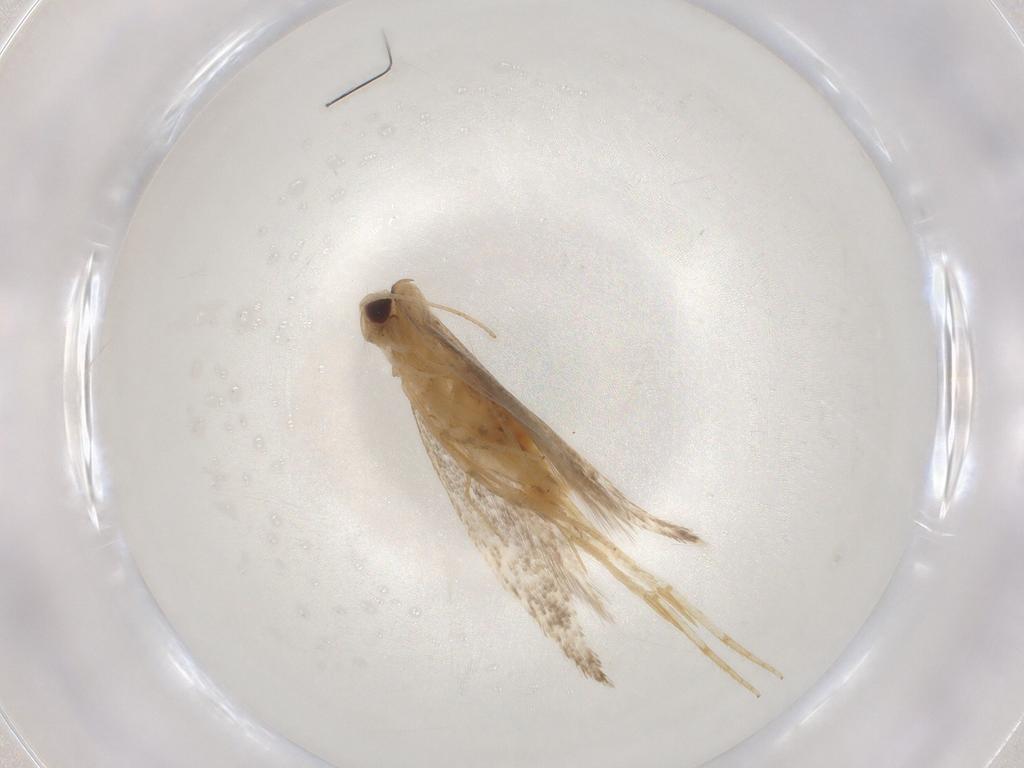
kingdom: Animalia
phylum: Arthropoda
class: Insecta
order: Lepidoptera
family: Cosmopterigidae
